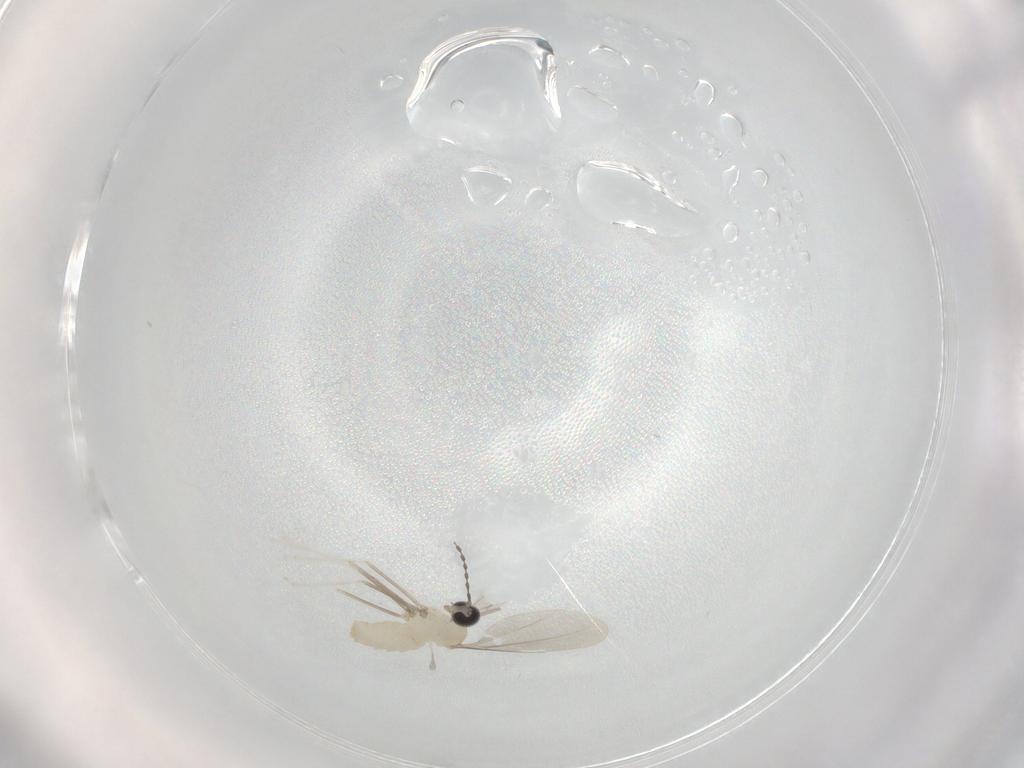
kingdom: Animalia
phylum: Arthropoda
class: Insecta
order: Diptera
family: Cecidomyiidae
